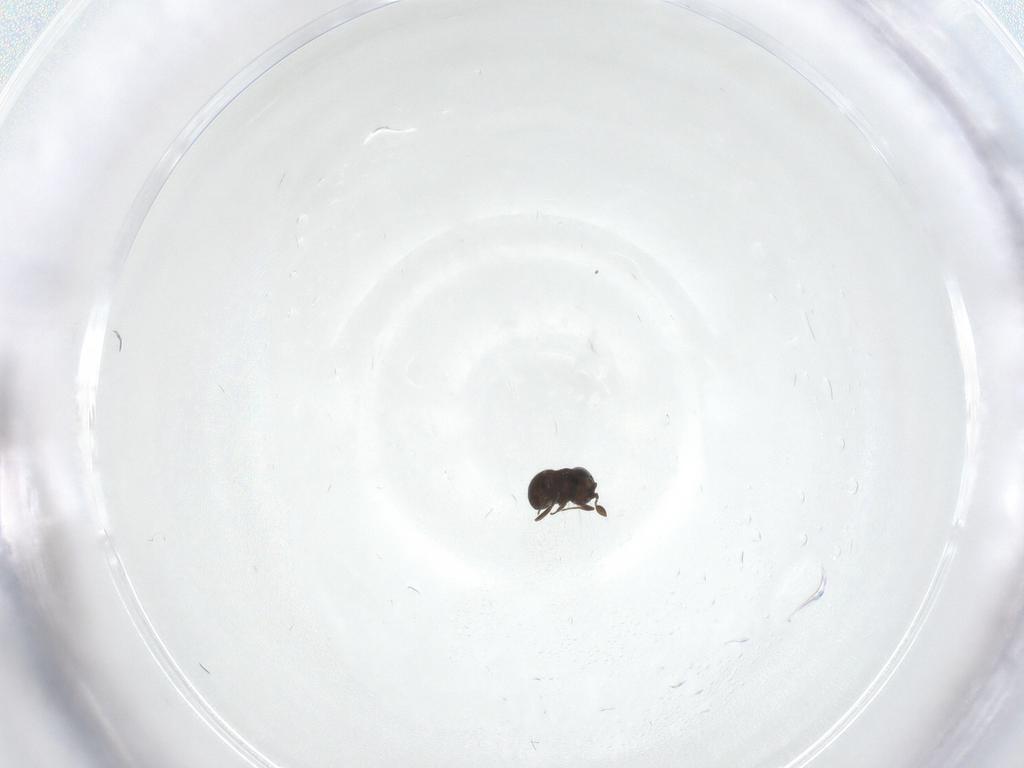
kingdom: Animalia
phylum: Arthropoda
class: Insecta
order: Hymenoptera
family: Scelionidae
